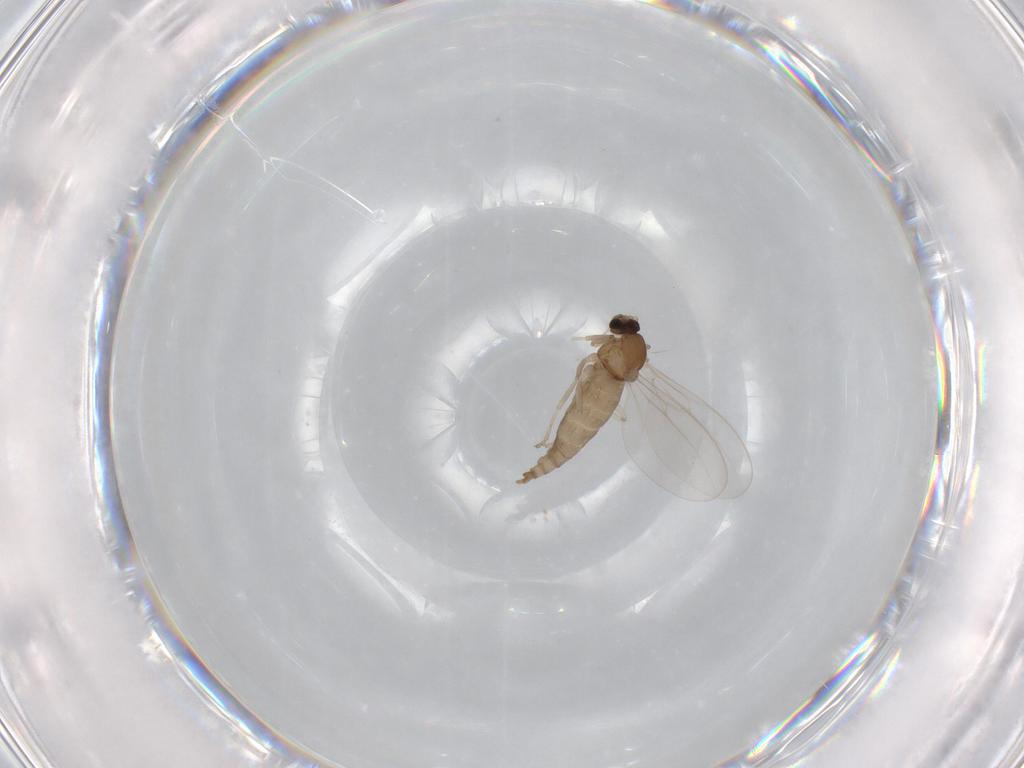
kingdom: Animalia
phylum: Arthropoda
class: Insecta
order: Diptera
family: Cecidomyiidae
